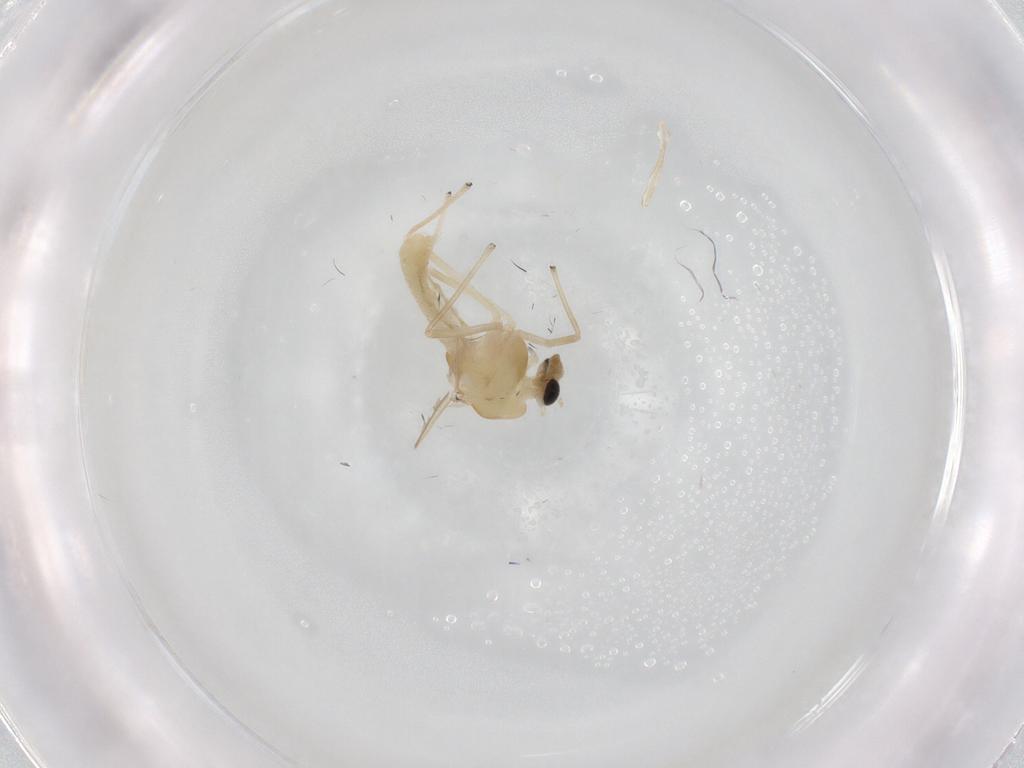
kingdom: Animalia
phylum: Arthropoda
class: Insecta
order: Diptera
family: Chironomidae
